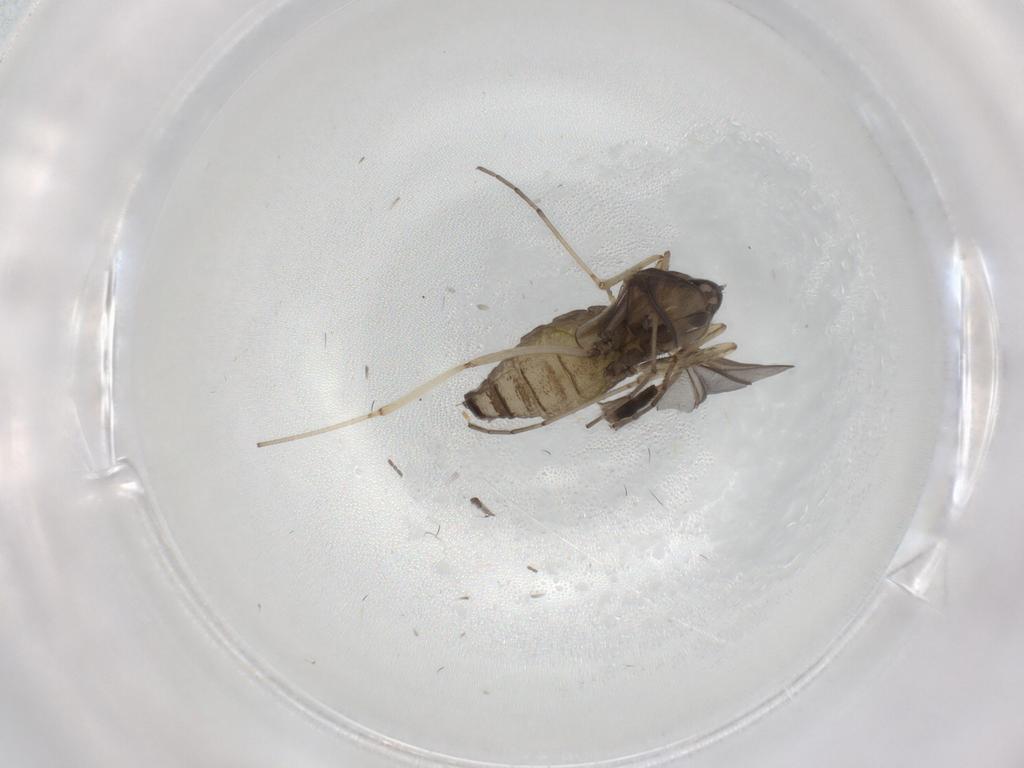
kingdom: Animalia
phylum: Arthropoda
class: Insecta
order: Diptera
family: Cecidomyiidae
